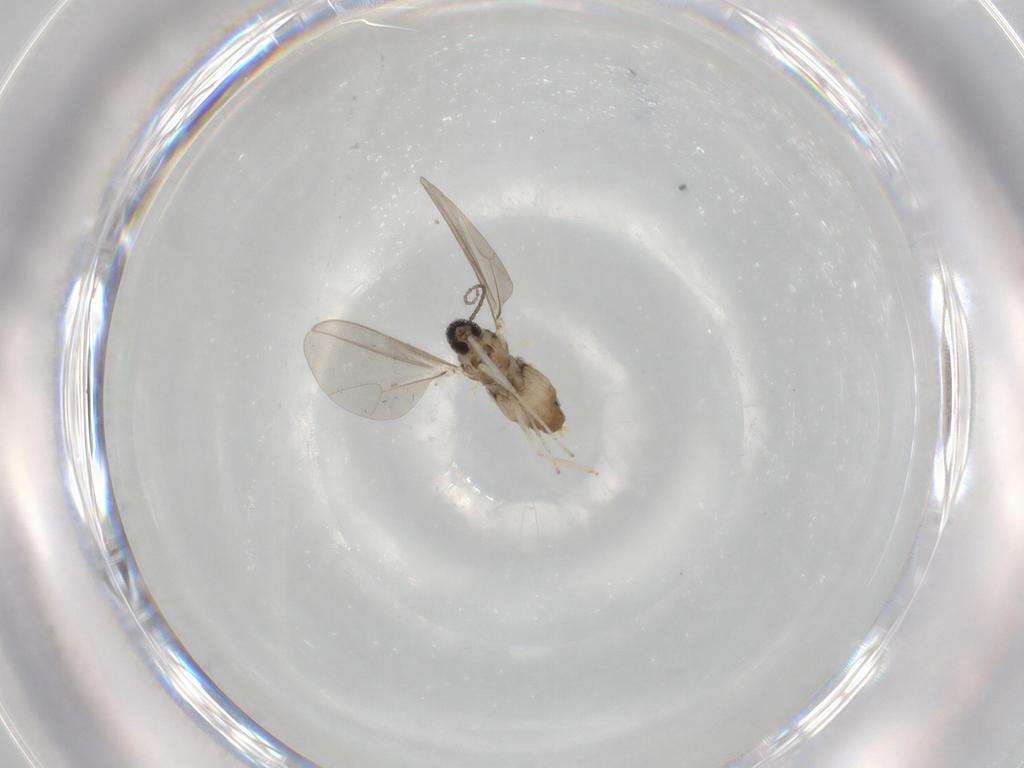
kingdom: Animalia
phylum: Arthropoda
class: Insecta
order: Diptera
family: Cecidomyiidae
